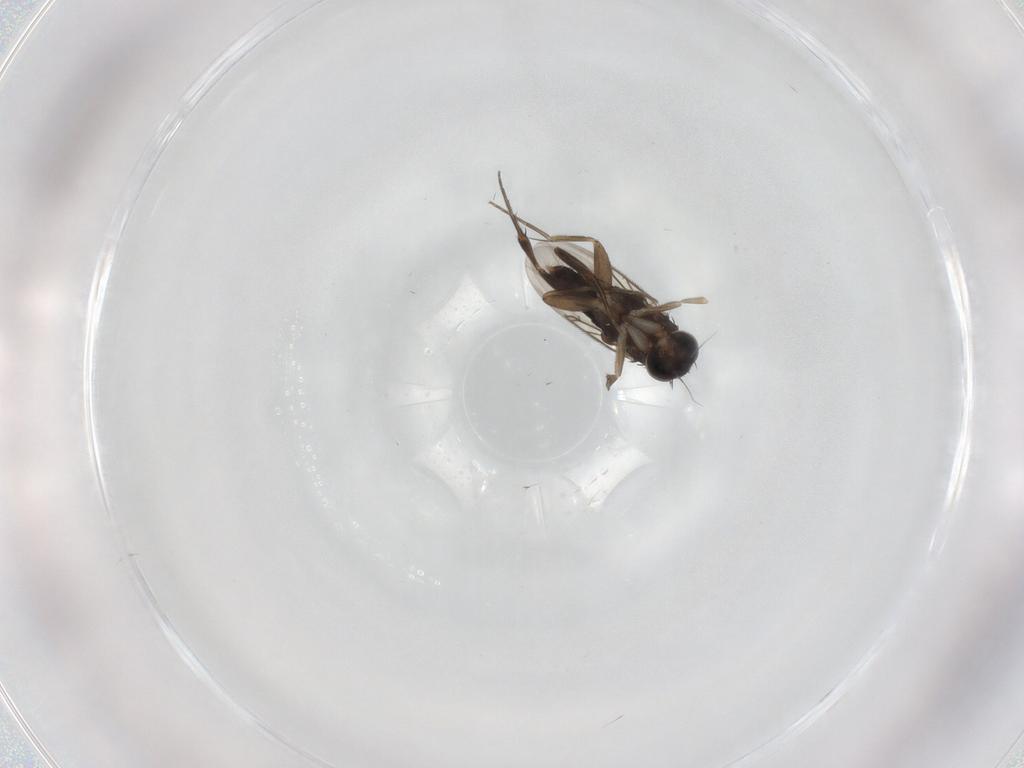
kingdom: Animalia
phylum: Arthropoda
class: Insecta
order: Diptera
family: Phoridae
